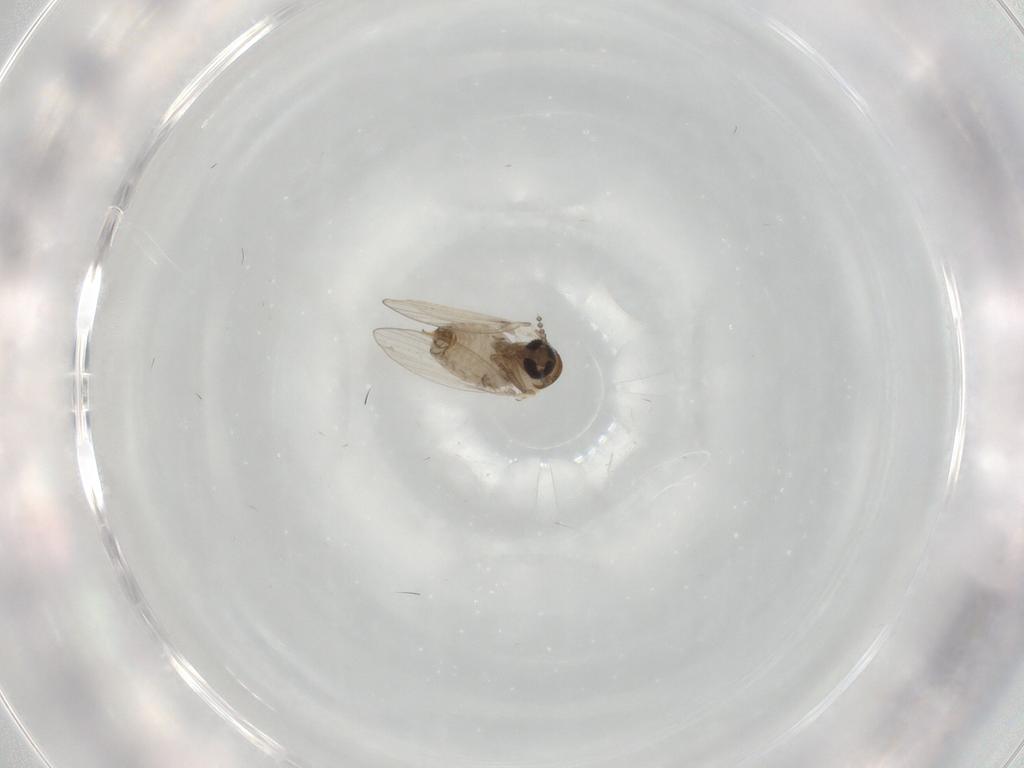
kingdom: Animalia
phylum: Arthropoda
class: Insecta
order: Diptera
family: Psychodidae
